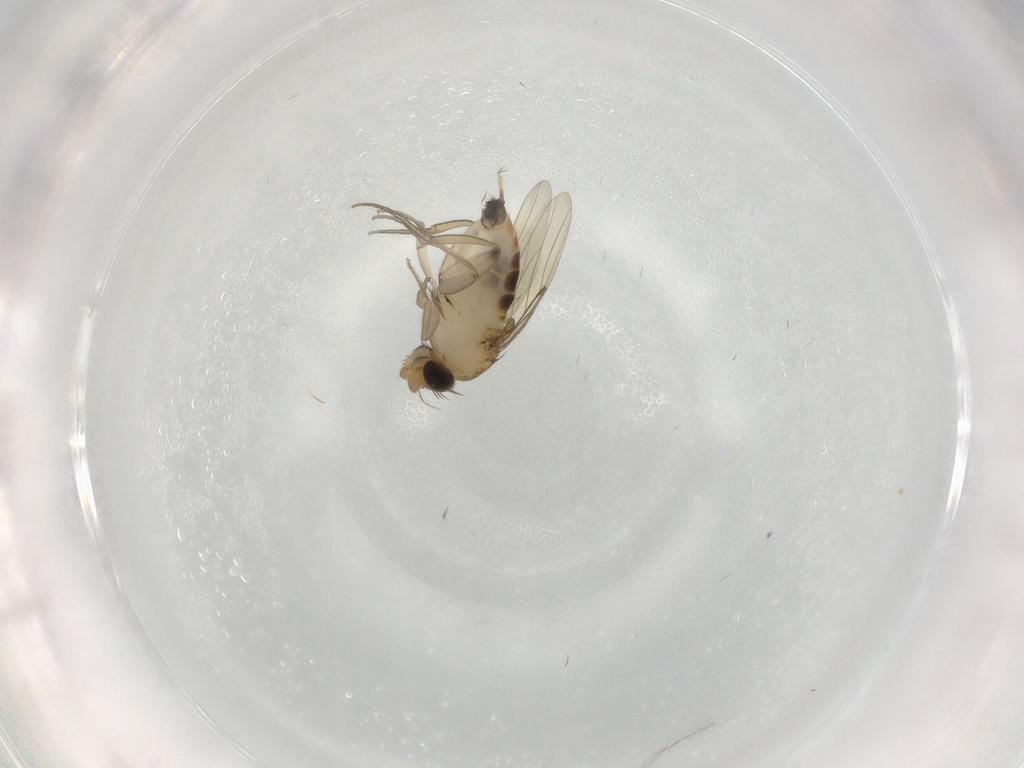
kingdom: Animalia
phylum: Arthropoda
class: Insecta
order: Diptera
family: Phoridae
